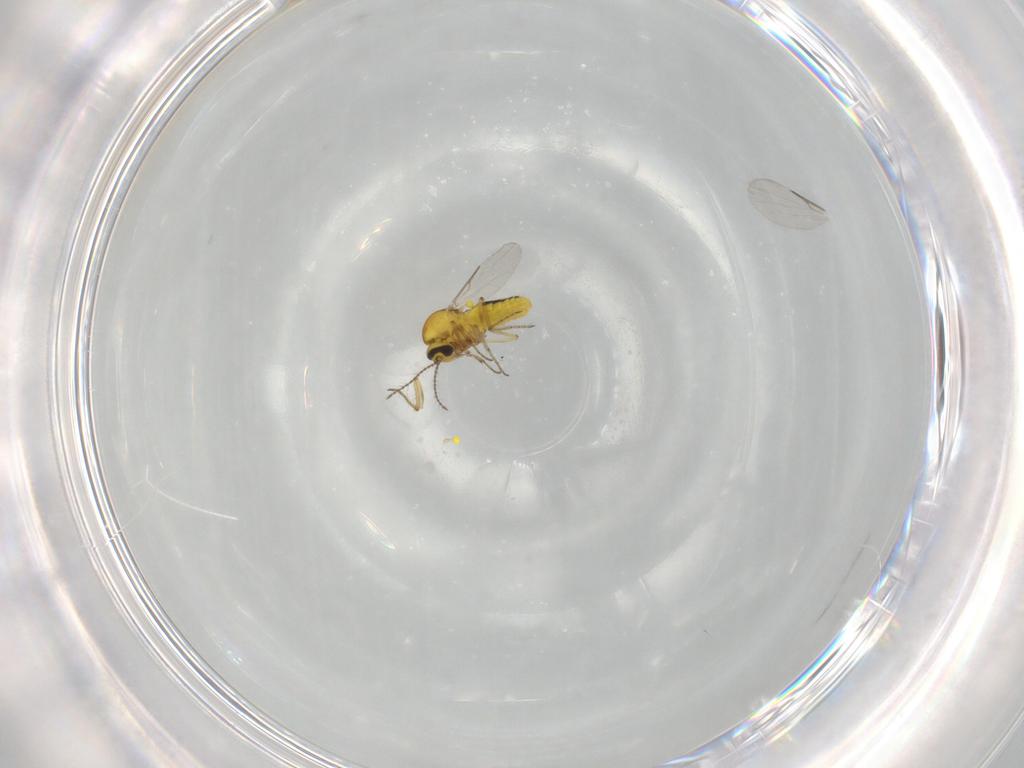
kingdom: Animalia
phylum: Arthropoda
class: Insecta
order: Diptera
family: Ceratopogonidae
